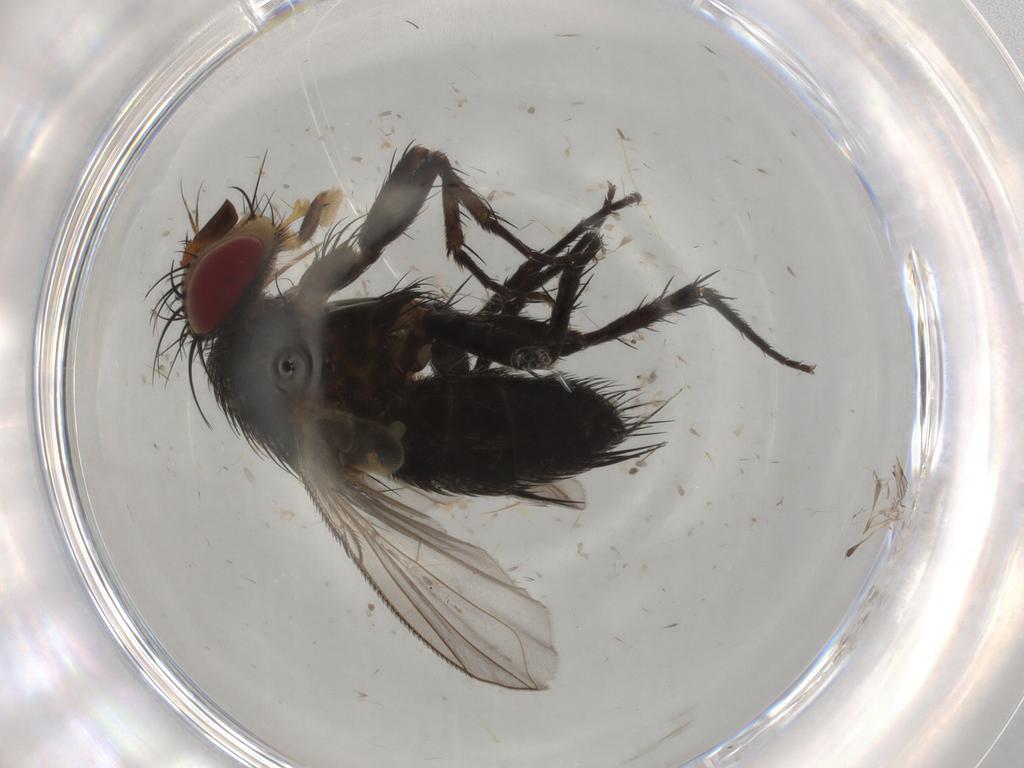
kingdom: Animalia
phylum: Arthropoda
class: Insecta
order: Diptera
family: Tachinidae
